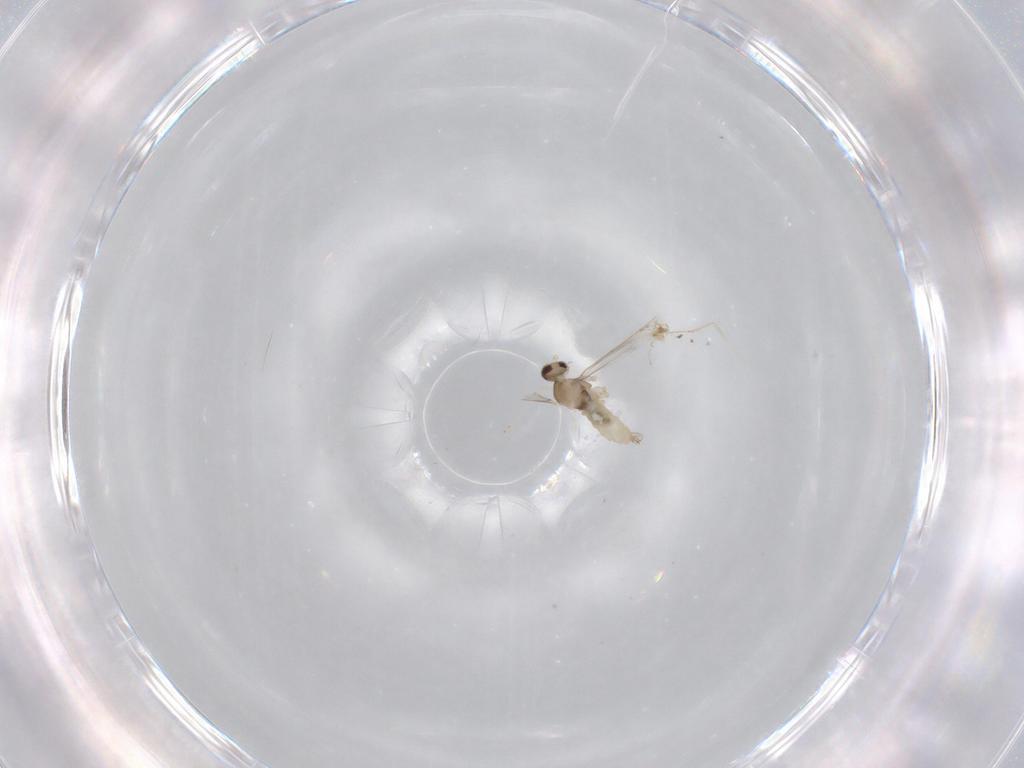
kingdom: Animalia
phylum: Arthropoda
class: Insecta
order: Diptera
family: Cecidomyiidae
